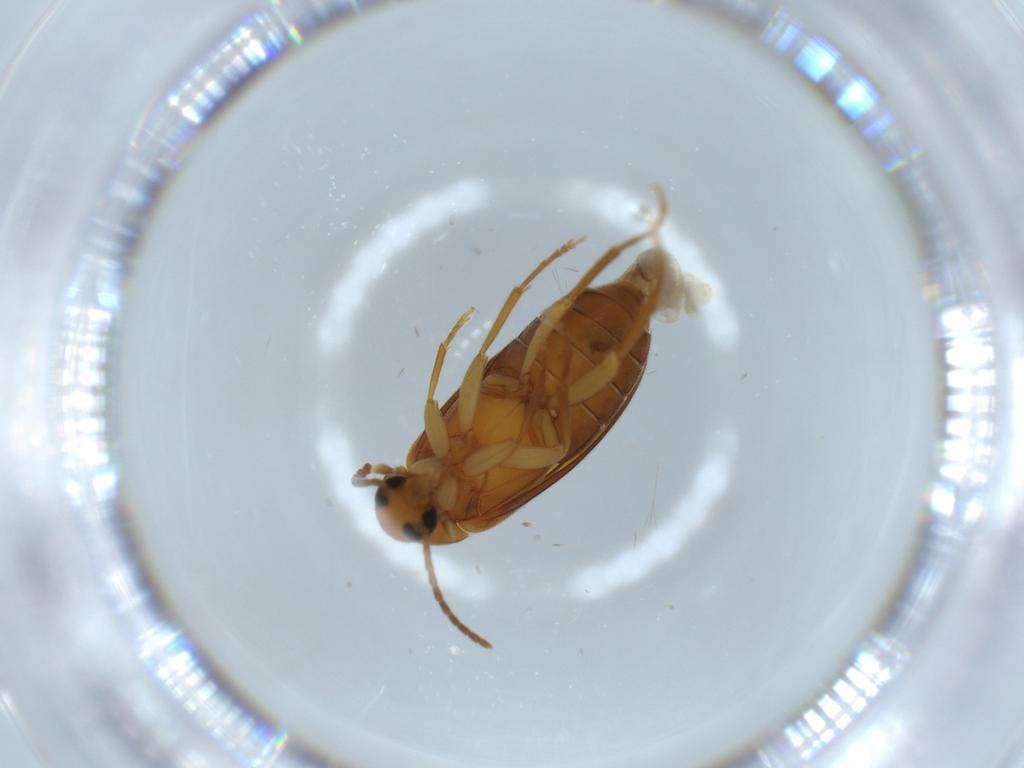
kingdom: Animalia
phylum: Arthropoda
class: Insecta
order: Coleoptera
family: Scraptiidae
